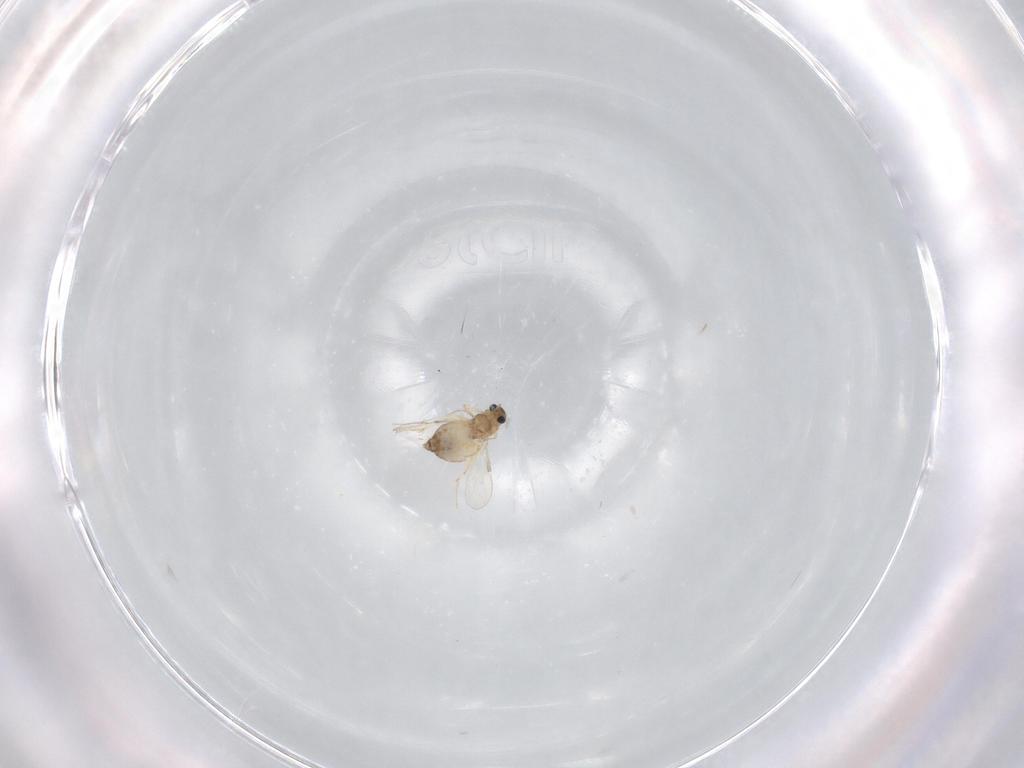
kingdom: Animalia
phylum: Arthropoda
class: Insecta
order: Diptera
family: Chironomidae
